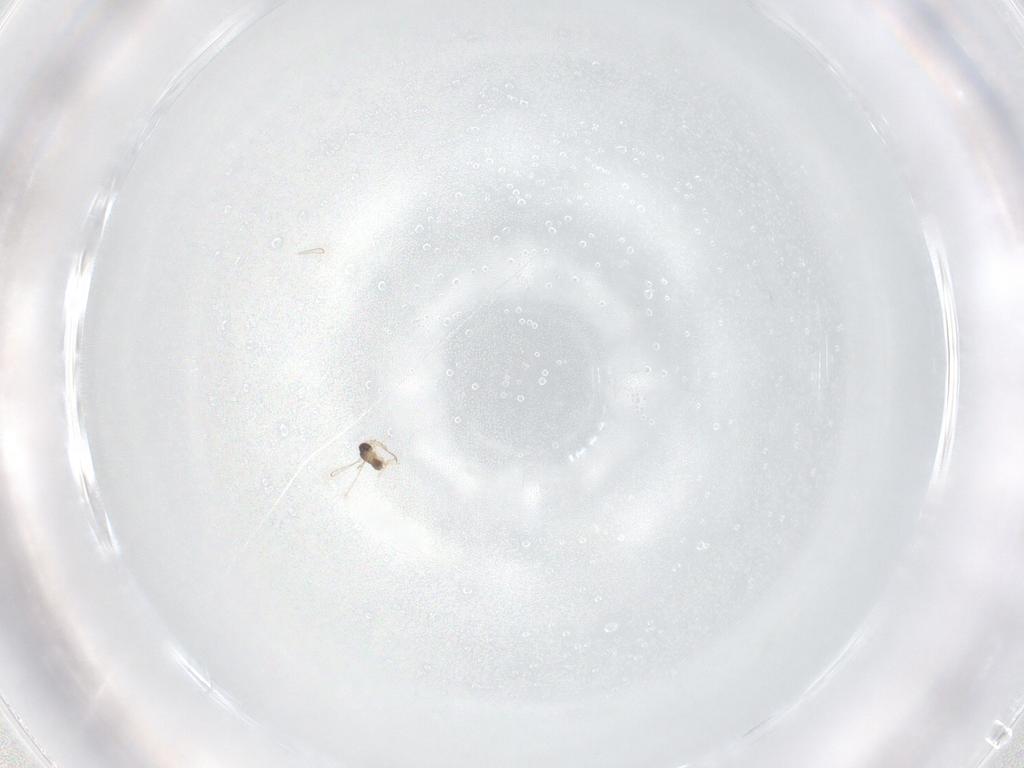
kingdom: Animalia
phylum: Arthropoda
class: Insecta
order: Hymenoptera
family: Scelionidae
